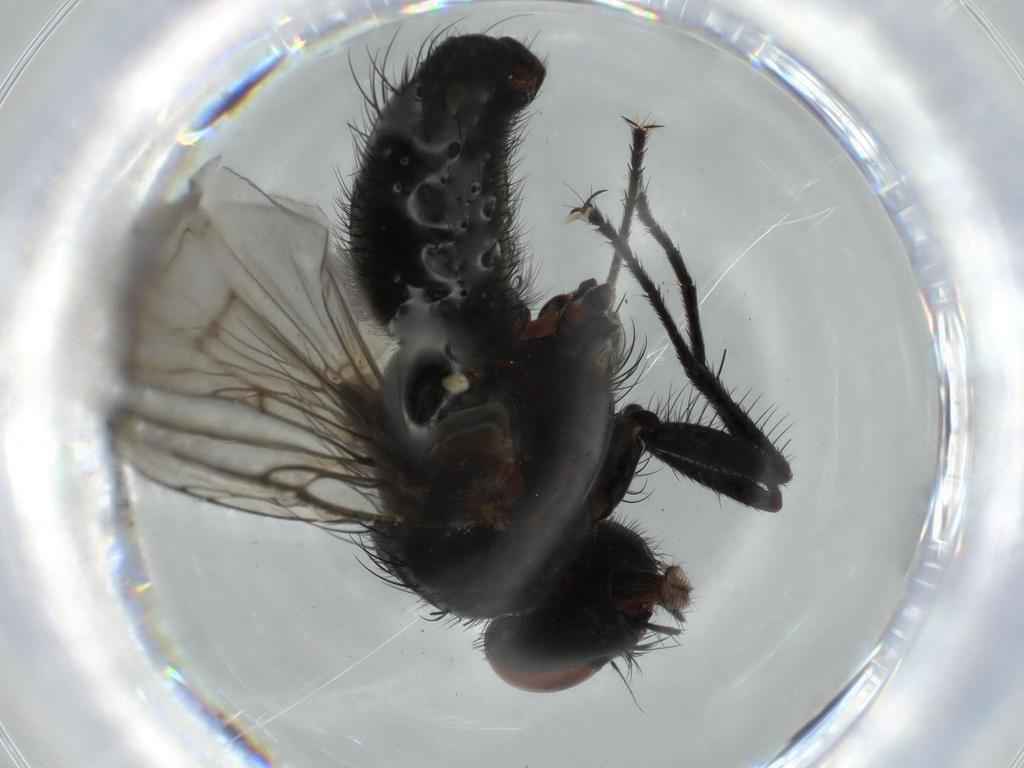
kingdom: Animalia
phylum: Arthropoda
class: Insecta
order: Diptera
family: Muscidae
